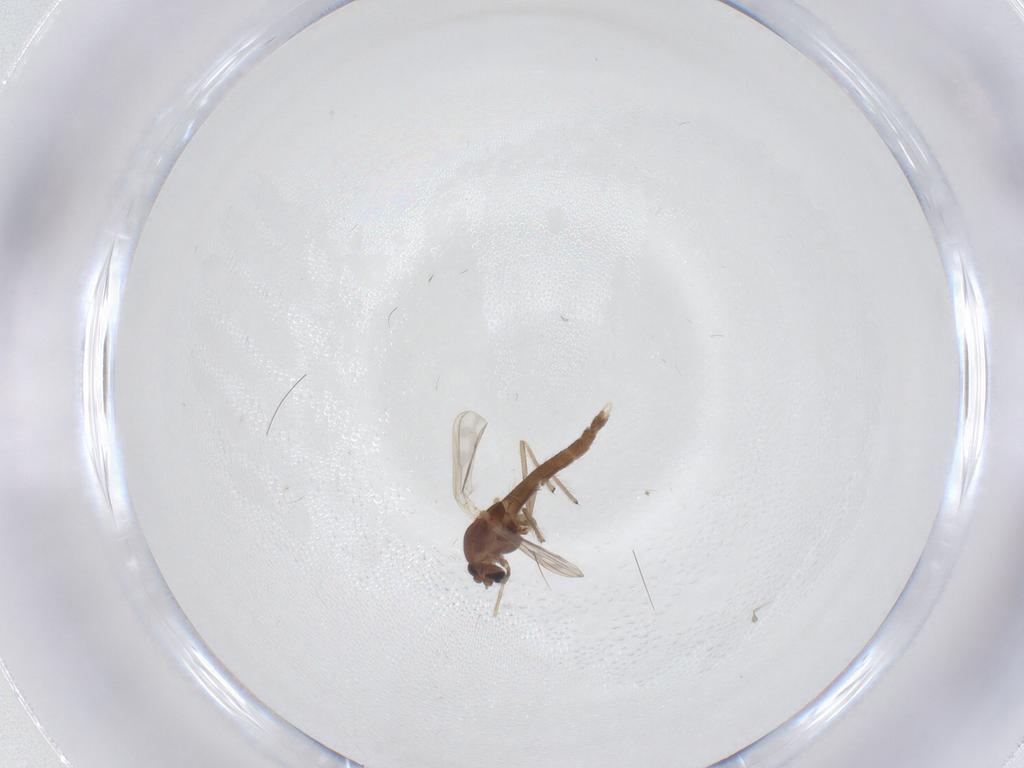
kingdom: Animalia
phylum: Arthropoda
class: Insecta
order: Diptera
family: Chironomidae
